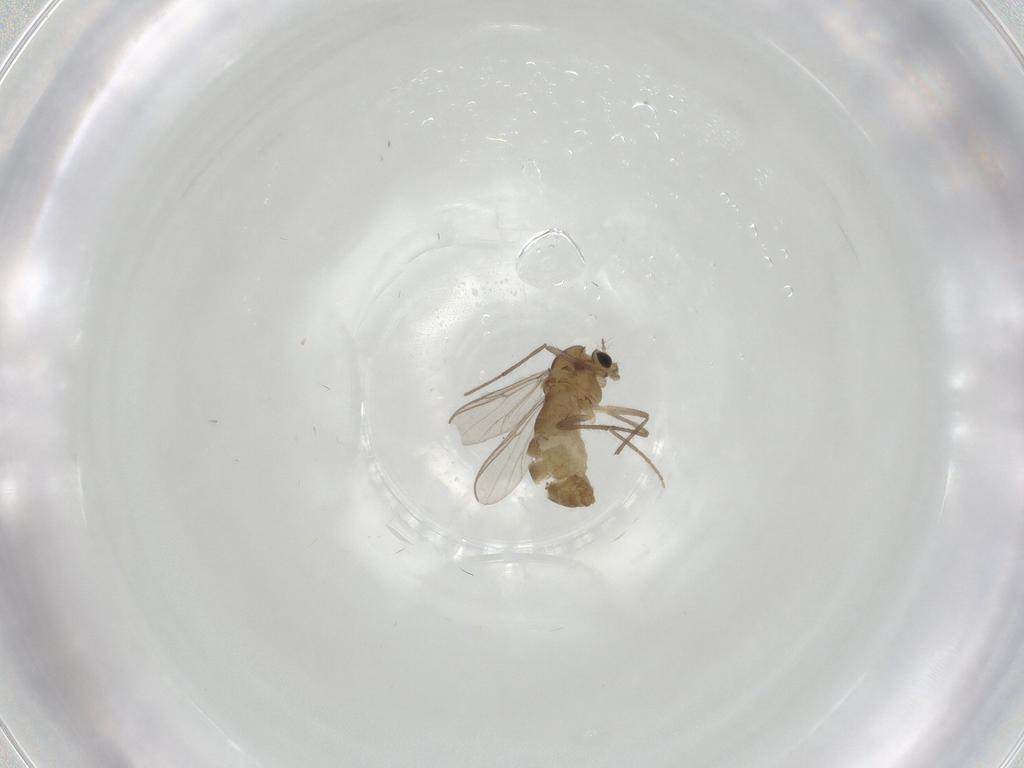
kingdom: Animalia
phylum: Arthropoda
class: Insecta
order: Diptera
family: Chironomidae
